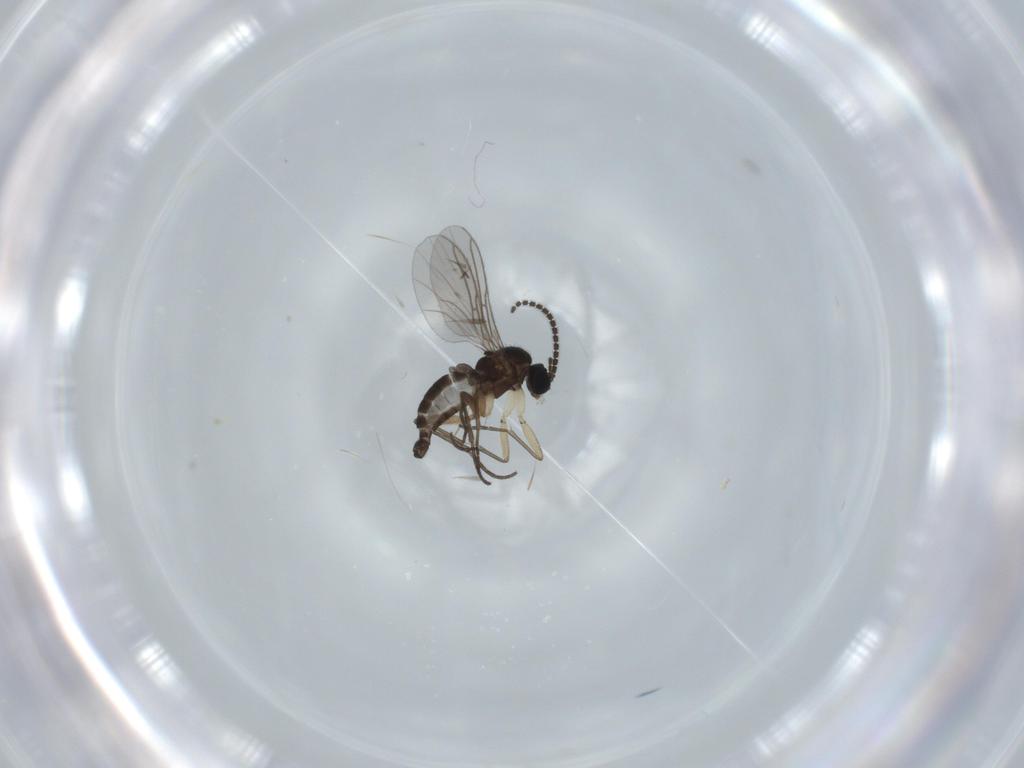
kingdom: Animalia
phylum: Arthropoda
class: Insecta
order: Diptera
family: Sciaridae
